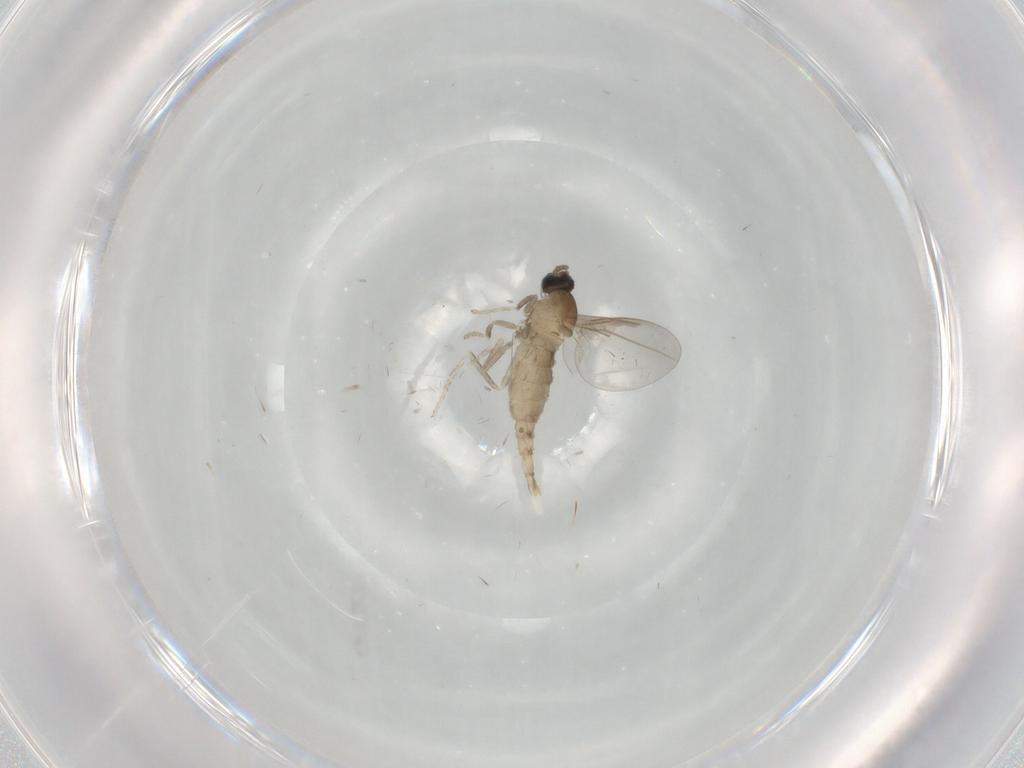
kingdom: Animalia
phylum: Arthropoda
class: Insecta
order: Diptera
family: Cecidomyiidae
